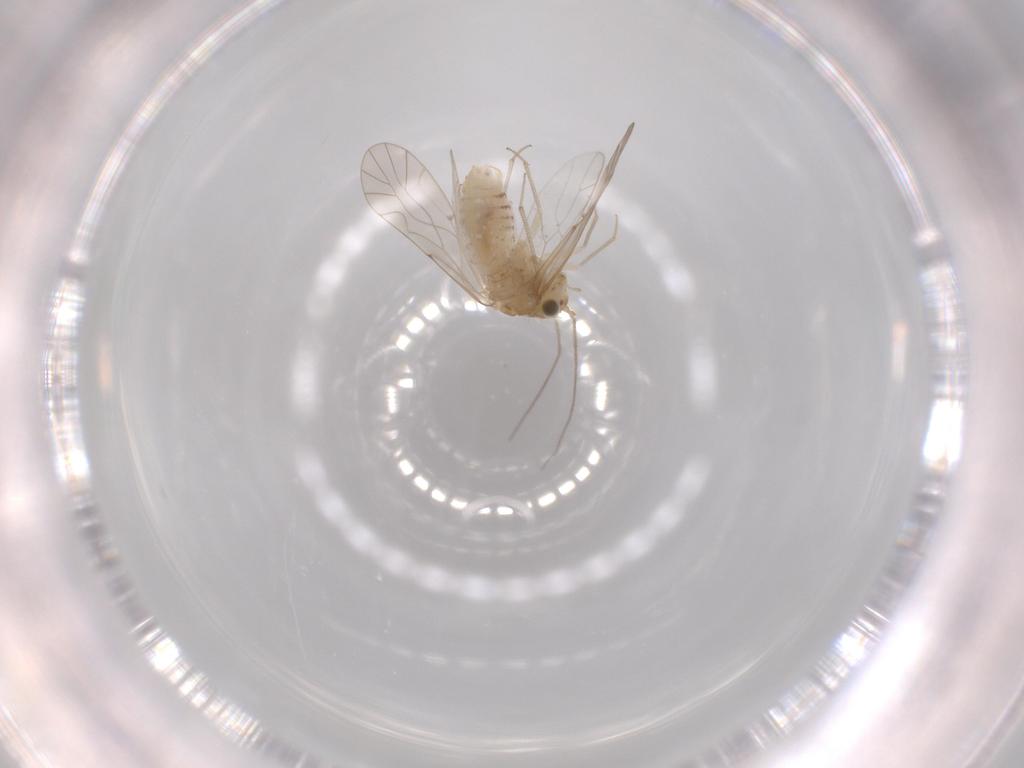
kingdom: Animalia
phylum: Arthropoda
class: Insecta
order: Psocodea
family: Lachesillidae
